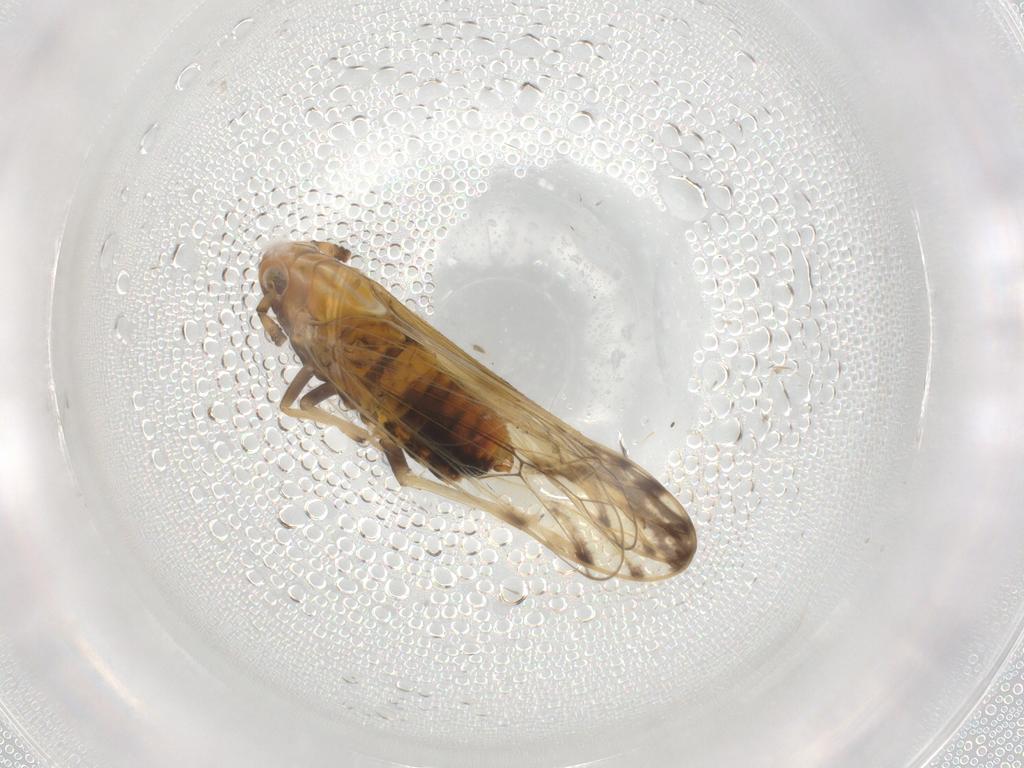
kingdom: Animalia
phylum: Arthropoda
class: Insecta
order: Hemiptera
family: Delphacidae
